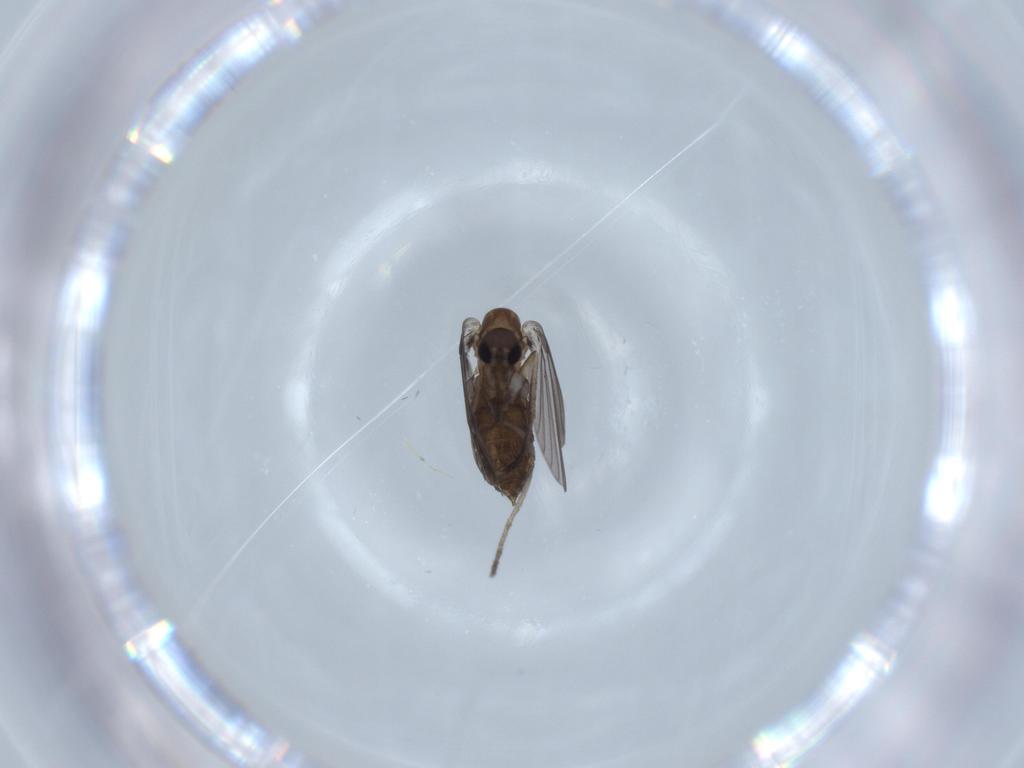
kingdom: Animalia
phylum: Arthropoda
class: Insecta
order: Diptera
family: Psychodidae
